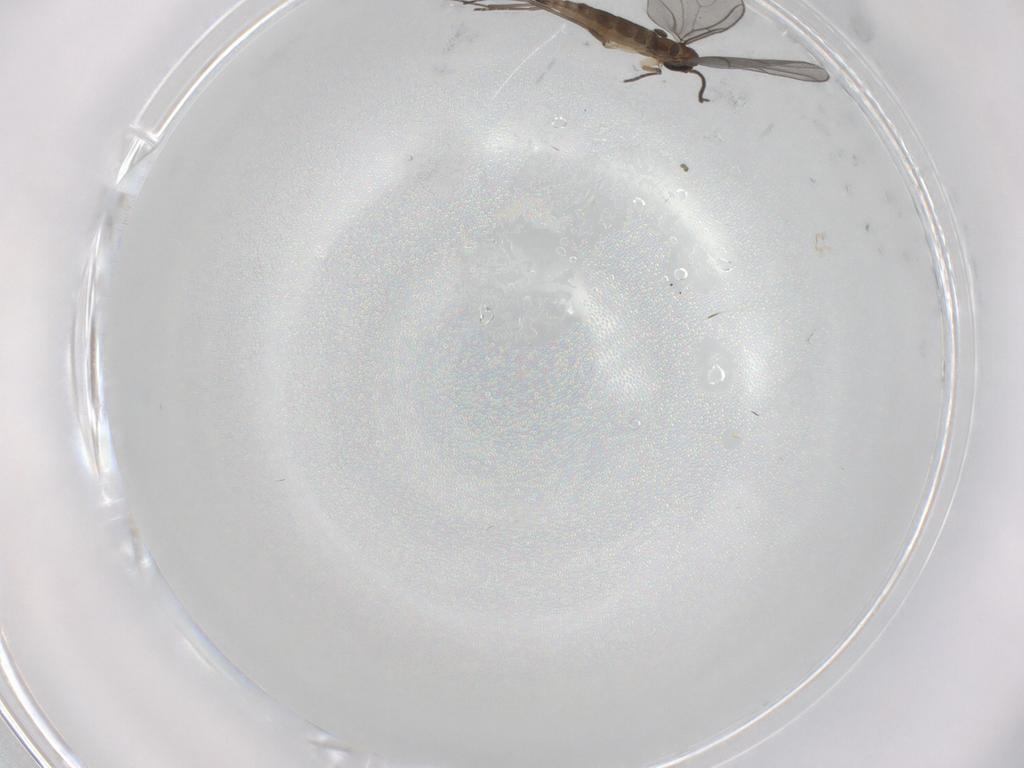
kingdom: Animalia
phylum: Arthropoda
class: Insecta
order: Diptera
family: Sciaridae
